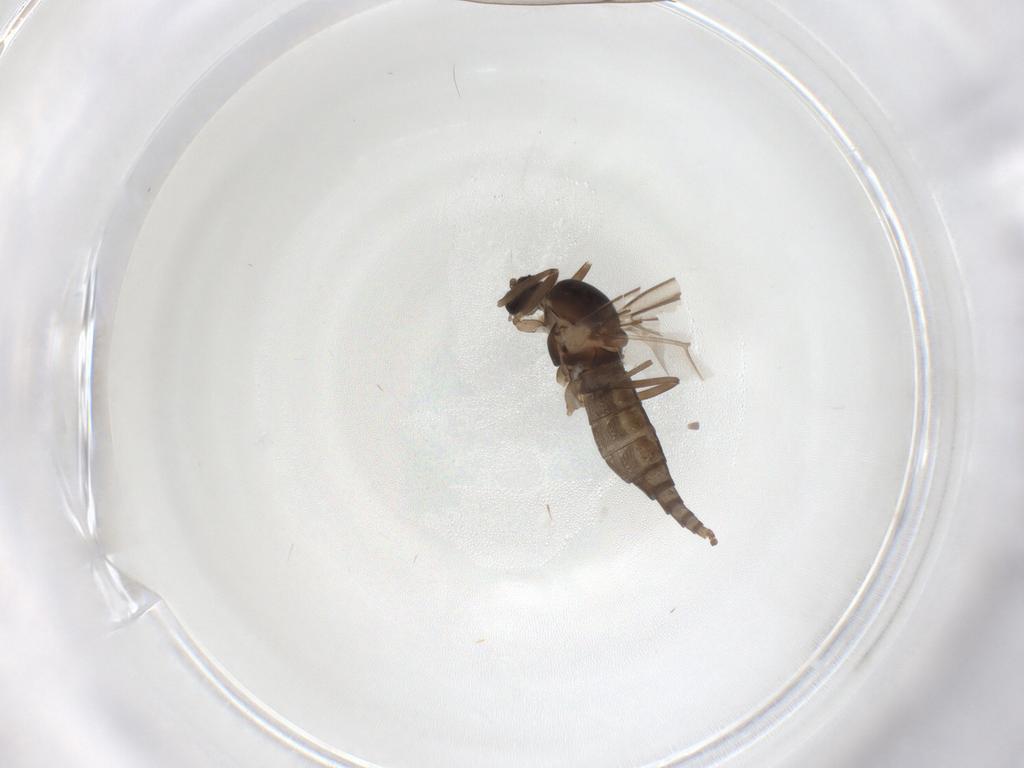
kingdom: Animalia
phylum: Arthropoda
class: Insecta
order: Diptera
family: Cecidomyiidae
